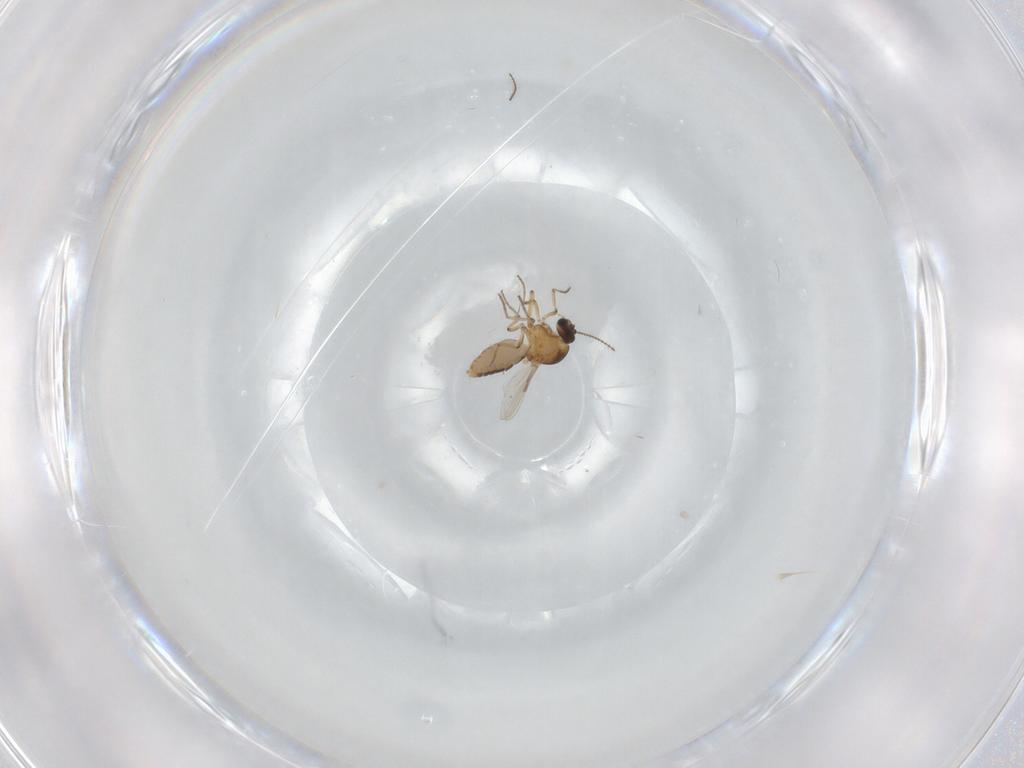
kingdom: Animalia
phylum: Arthropoda
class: Insecta
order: Diptera
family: Ceratopogonidae
